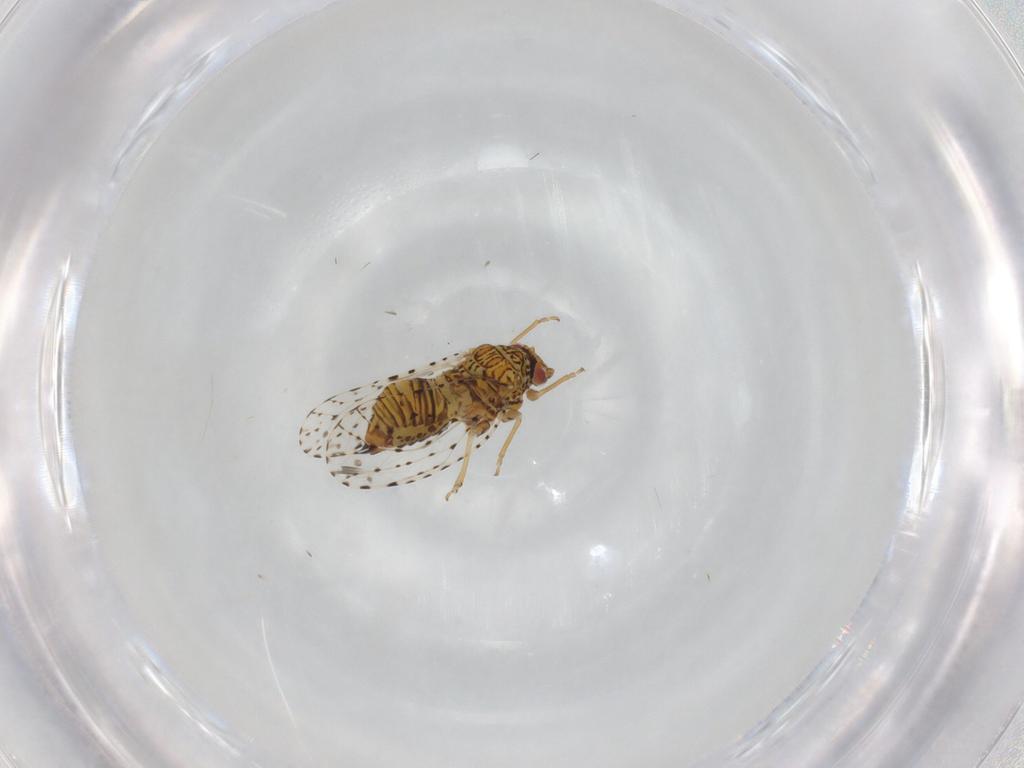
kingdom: Animalia
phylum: Arthropoda
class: Insecta
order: Hemiptera
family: Psyllidae
